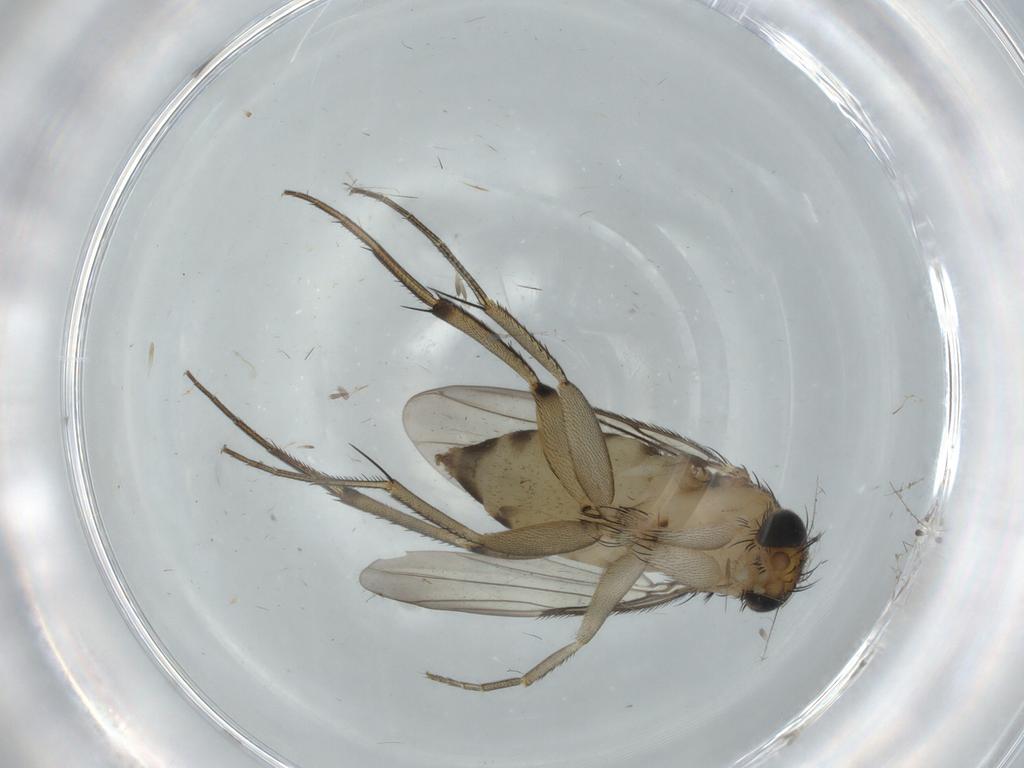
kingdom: Animalia
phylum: Arthropoda
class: Insecta
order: Diptera
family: Phoridae
